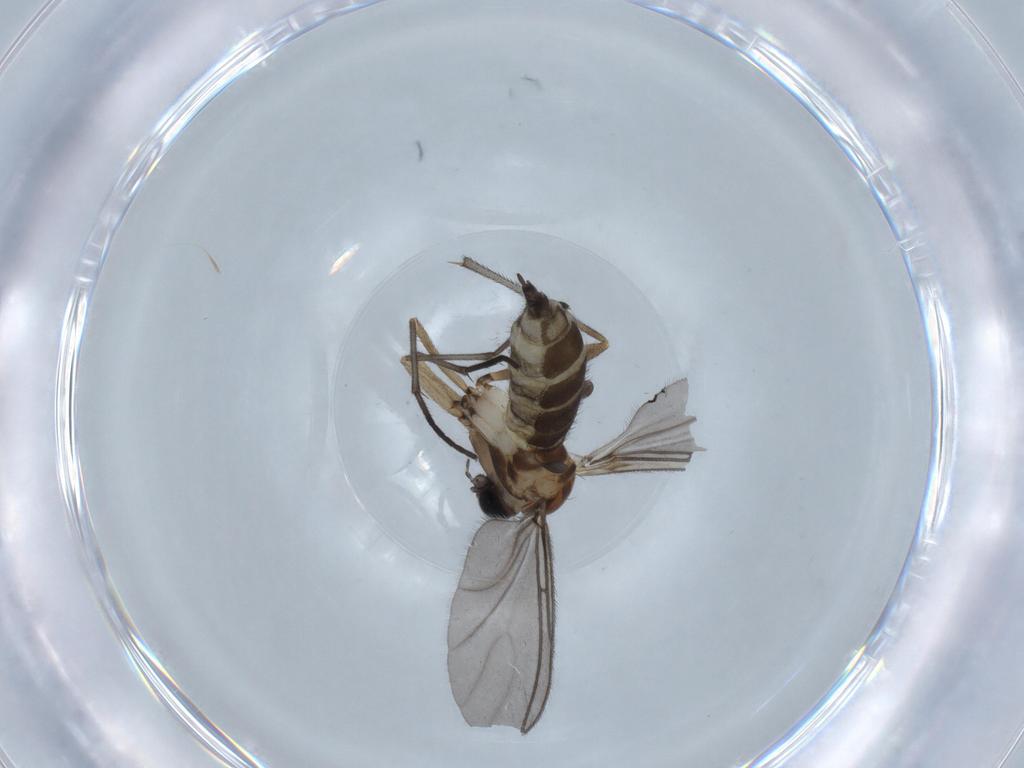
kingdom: Animalia
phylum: Arthropoda
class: Insecta
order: Diptera
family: Sciaridae
